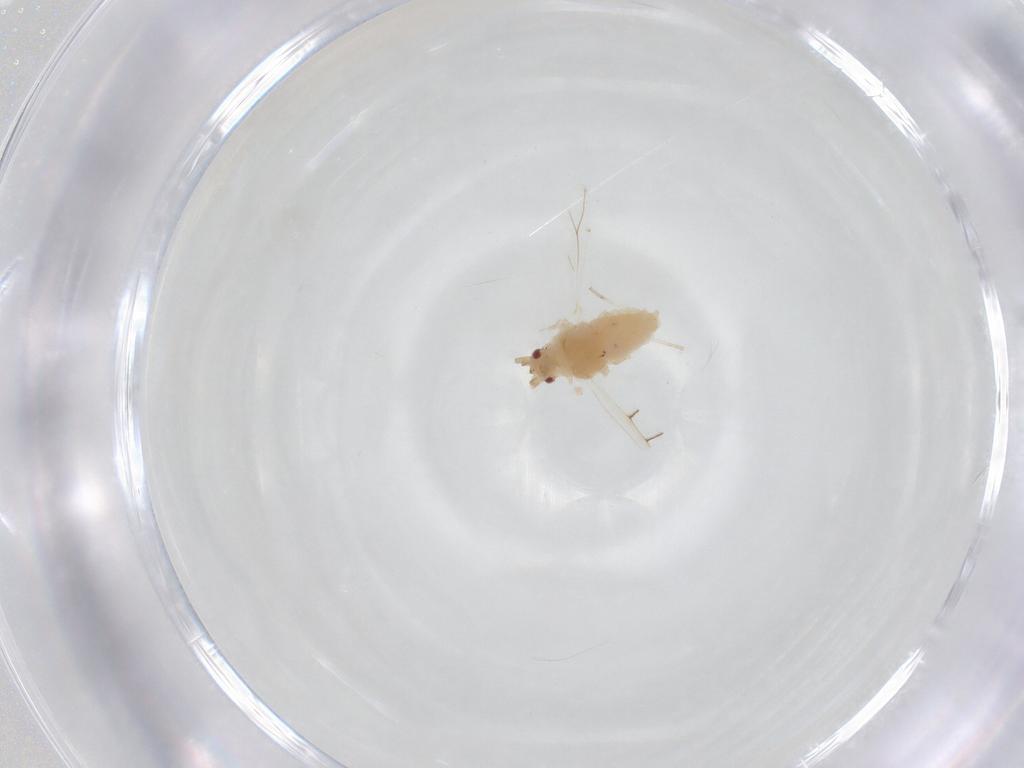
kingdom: Animalia
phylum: Arthropoda
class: Insecta
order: Hemiptera
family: Aphididae
